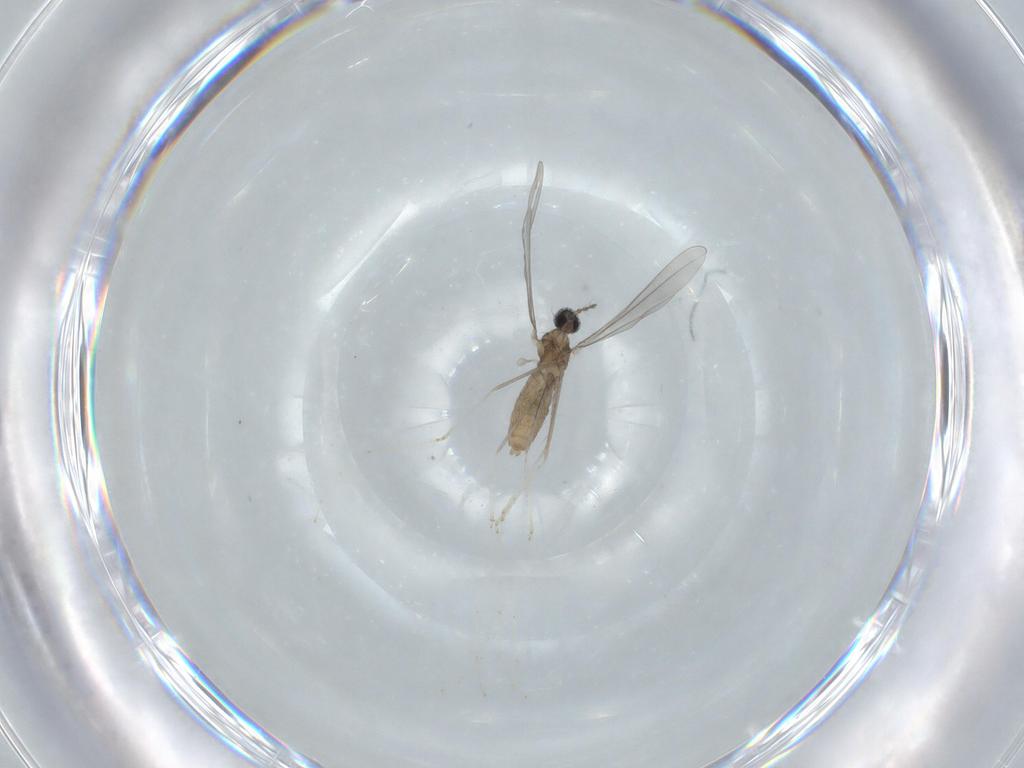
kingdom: Animalia
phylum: Arthropoda
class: Insecta
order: Diptera
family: Cecidomyiidae
